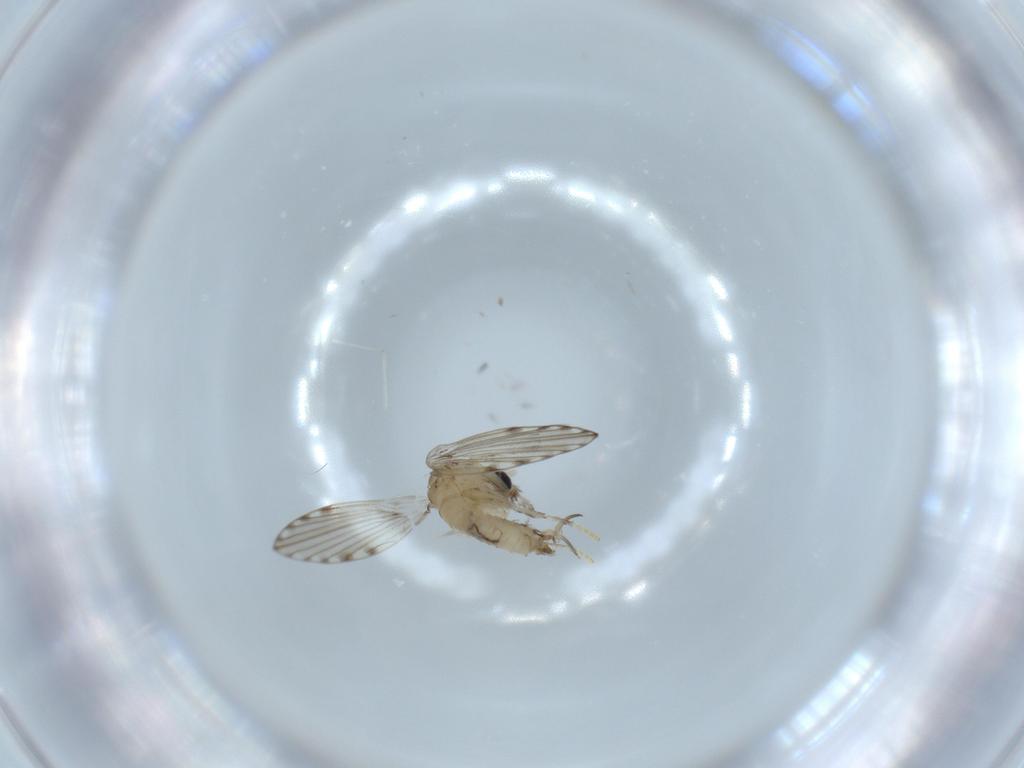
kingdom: Animalia
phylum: Arthropoda
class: Insecta
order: Diptera
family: Psychodidae
